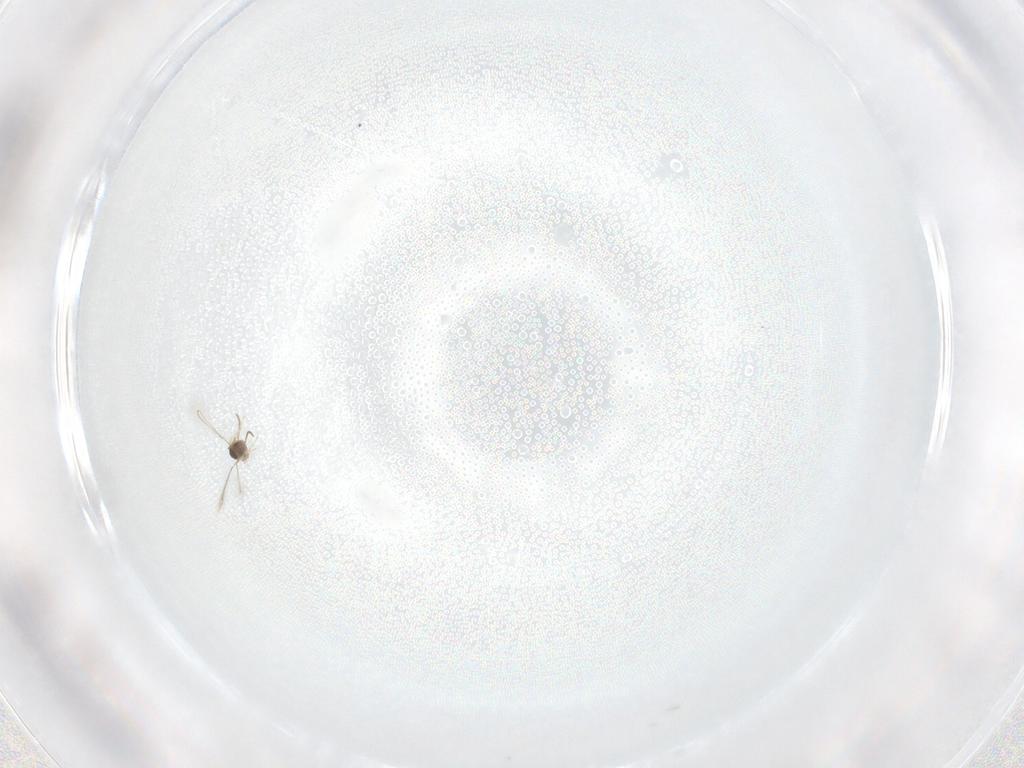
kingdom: Animalia
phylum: Arthropoda
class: Insecta
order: Hymenoptera
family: Mymaridae
